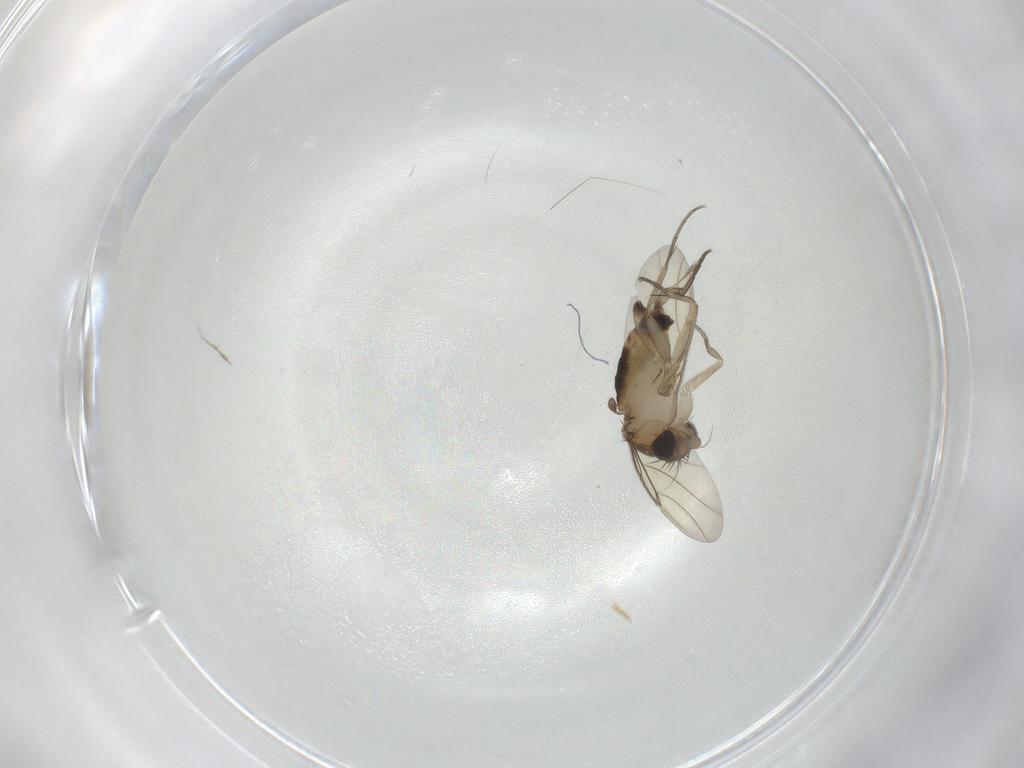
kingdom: Animalia
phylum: Arthropoda
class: Insecta
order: Diptera
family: Phoridae
